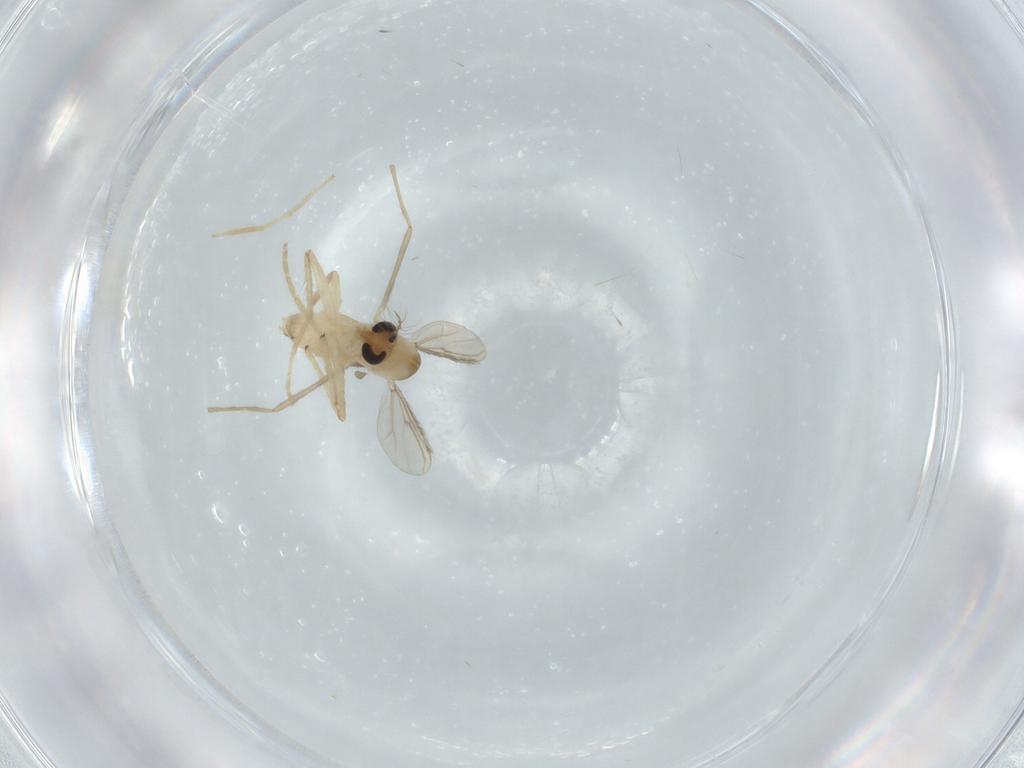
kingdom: Animalia
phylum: Arthropoda
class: Insecta
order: Diptera
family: Chironomidae
